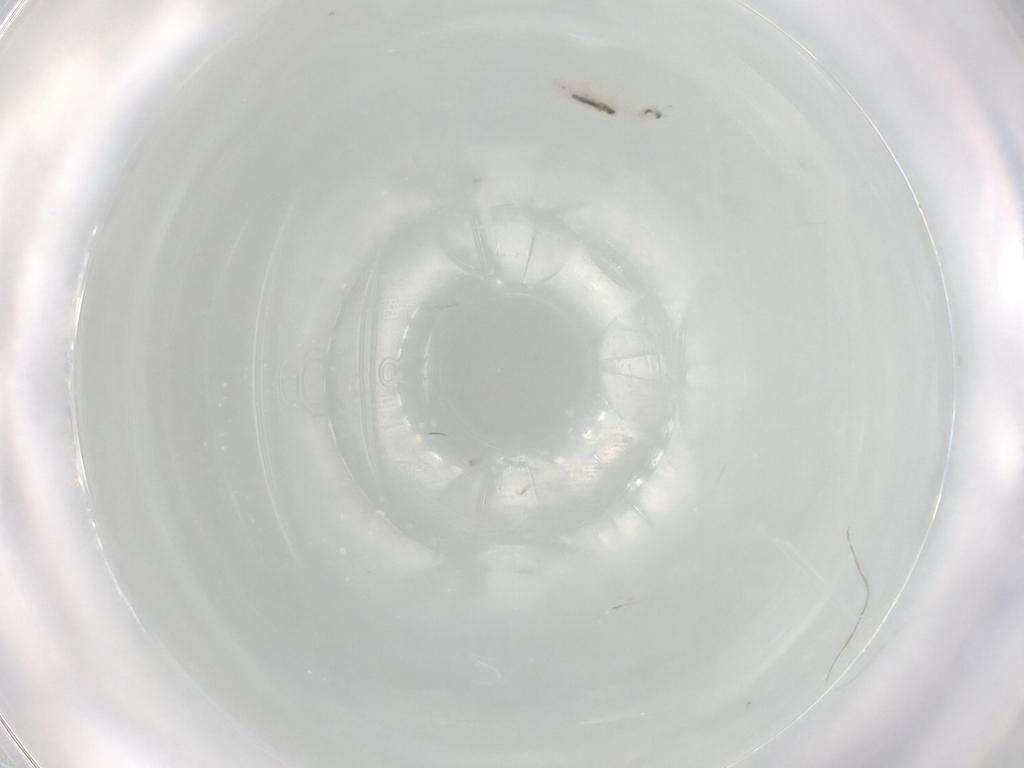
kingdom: Animalia
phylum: Arthropoda
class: Collembola
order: Entomobryomorpha
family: Entomobryidae
